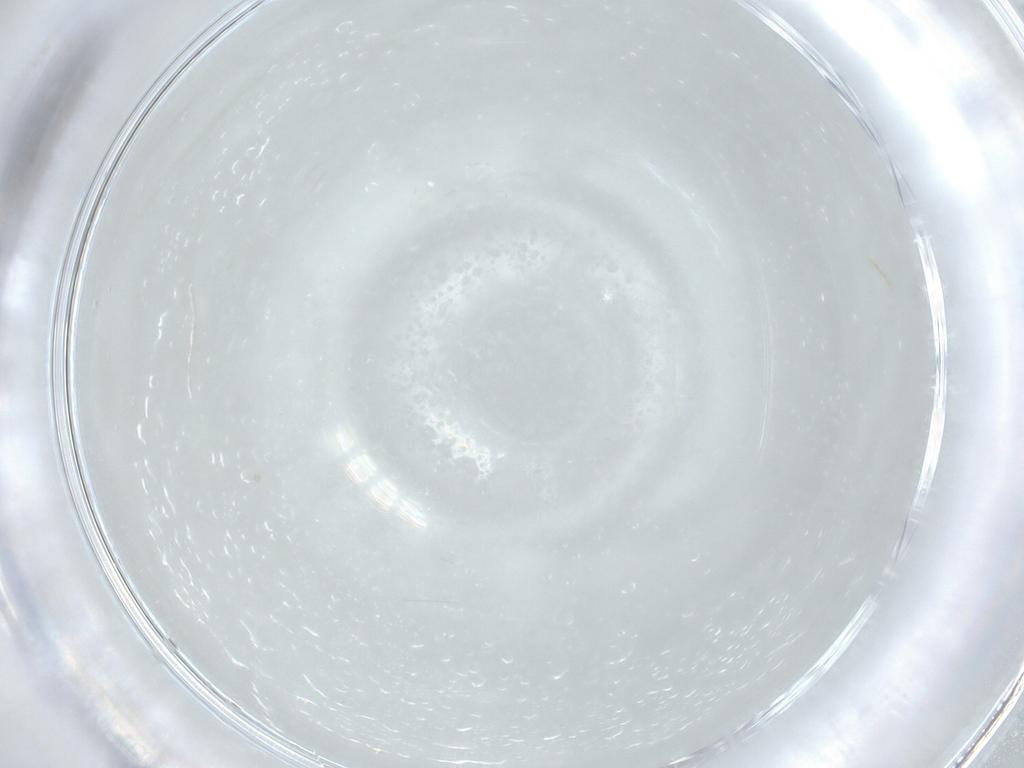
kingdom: Animalia
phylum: Arthropoda
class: Insecta
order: Diptera
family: Cecidomyiidae
